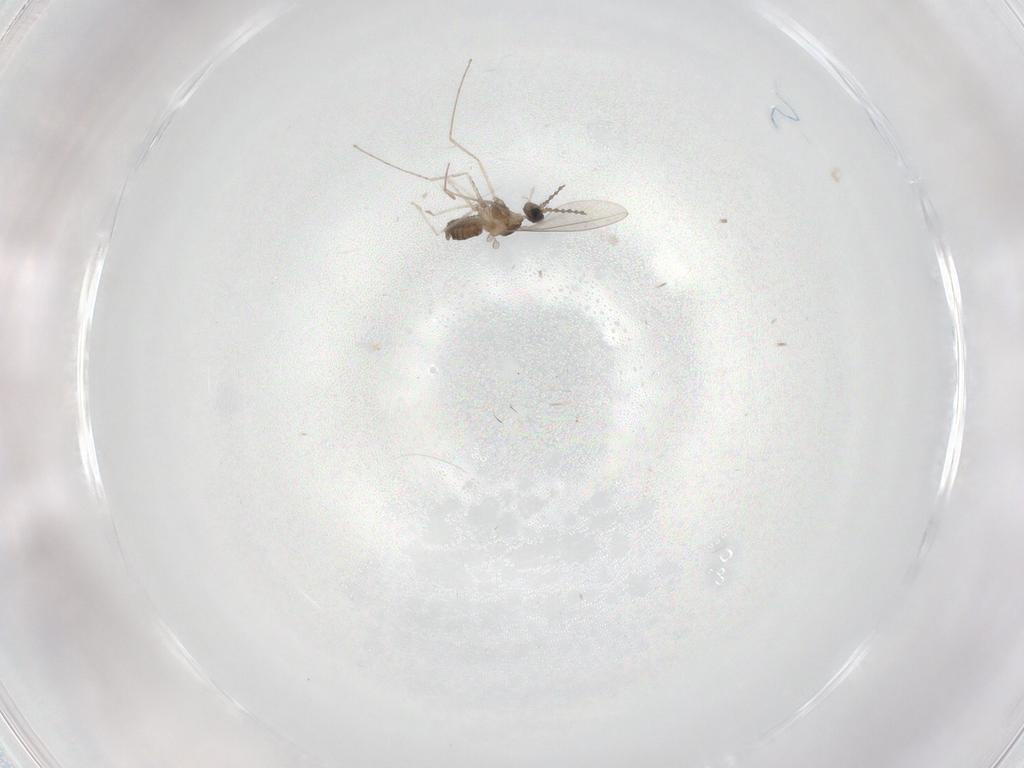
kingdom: Animalia
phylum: Arthropoda
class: Insecta
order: Diptera
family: Cecidomyiidae
